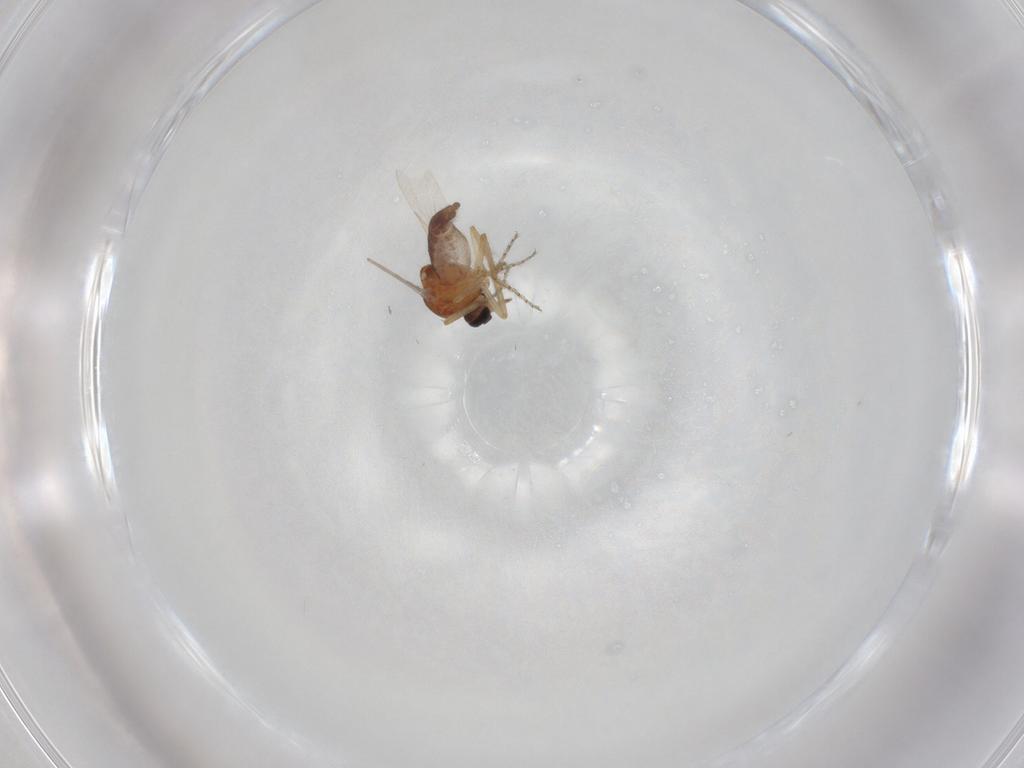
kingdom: Animalia
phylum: Arthropoda
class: Insecta
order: Diptera
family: Ceratopogonidae
